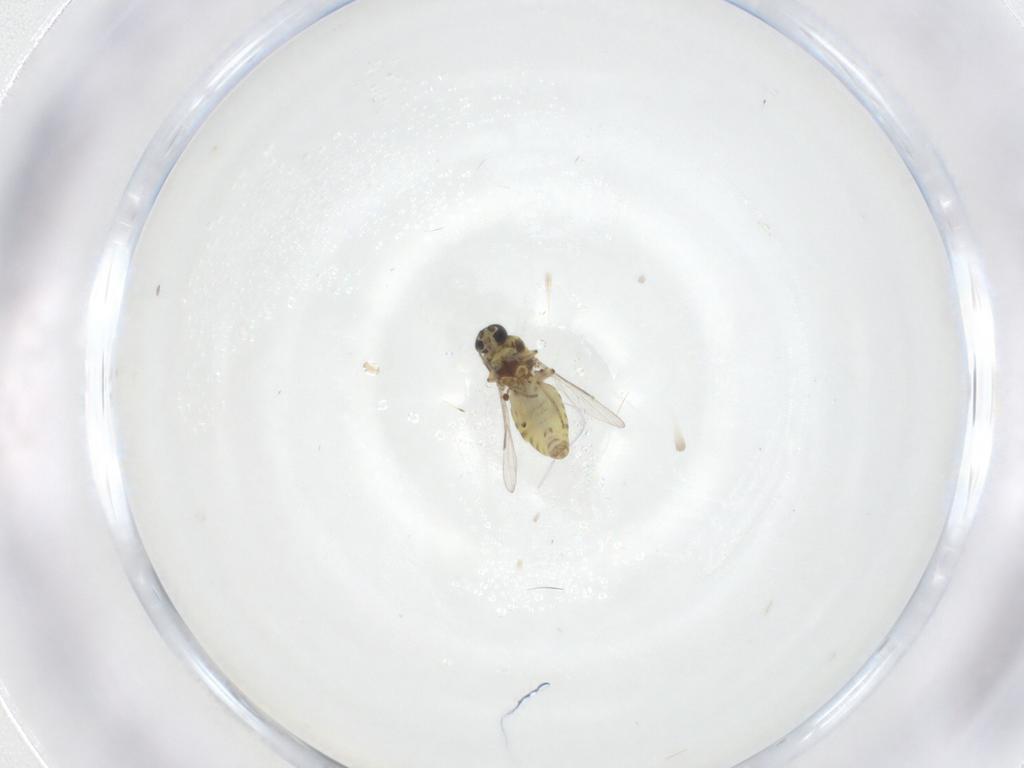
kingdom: Animalia
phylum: Arthropoda
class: Insecta
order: Diptera
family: Ceratopogonidae
